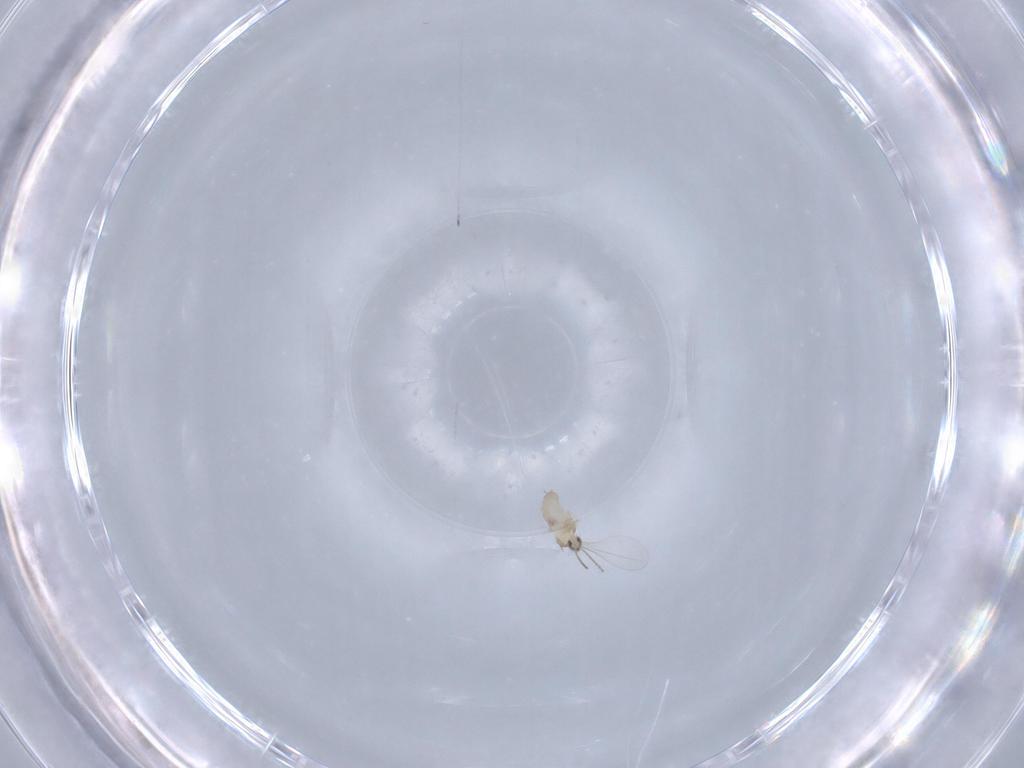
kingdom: Animalia
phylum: Arthropoda
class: Insecta
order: Diptera
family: Cecidomyiidae
